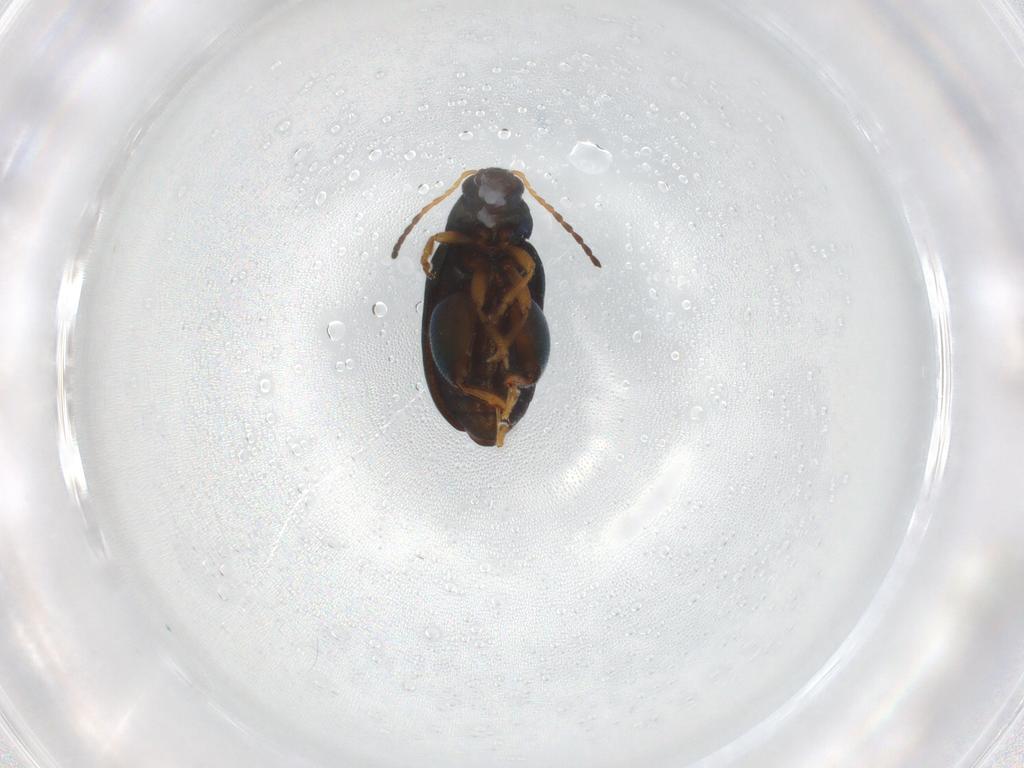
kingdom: Animalia
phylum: Arthropoda
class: Insecta
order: Coleoptera
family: Chrysomelidae
